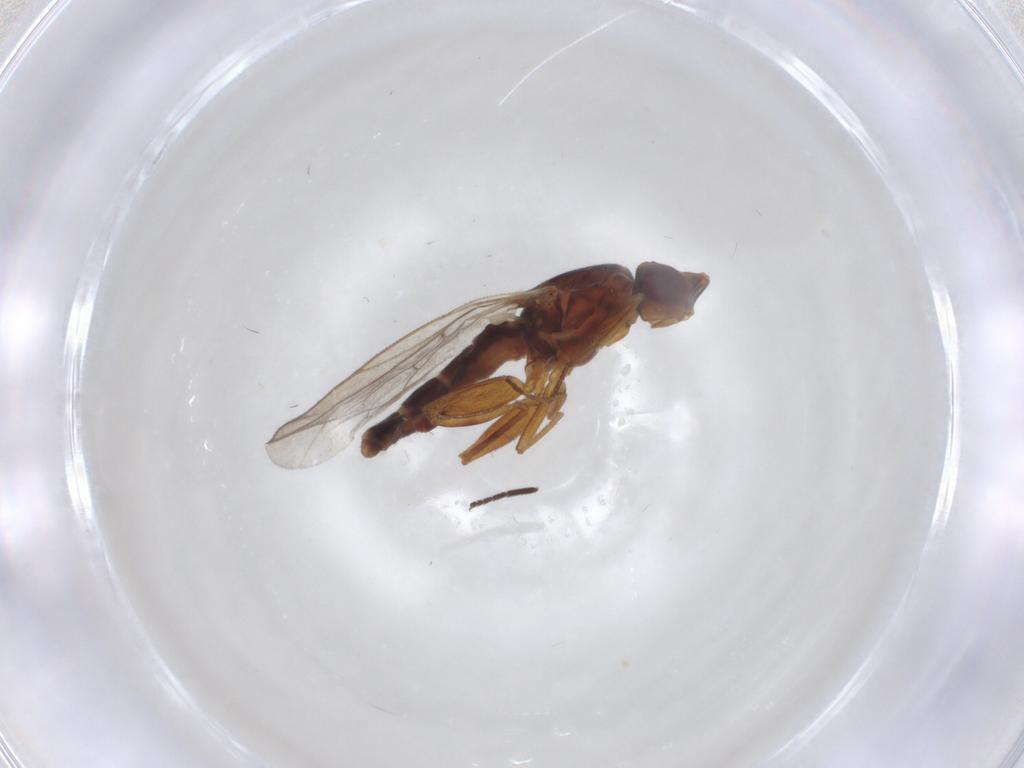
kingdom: Animalia
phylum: Arthropoda
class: Insecta
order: Diptera
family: Chloropidae
